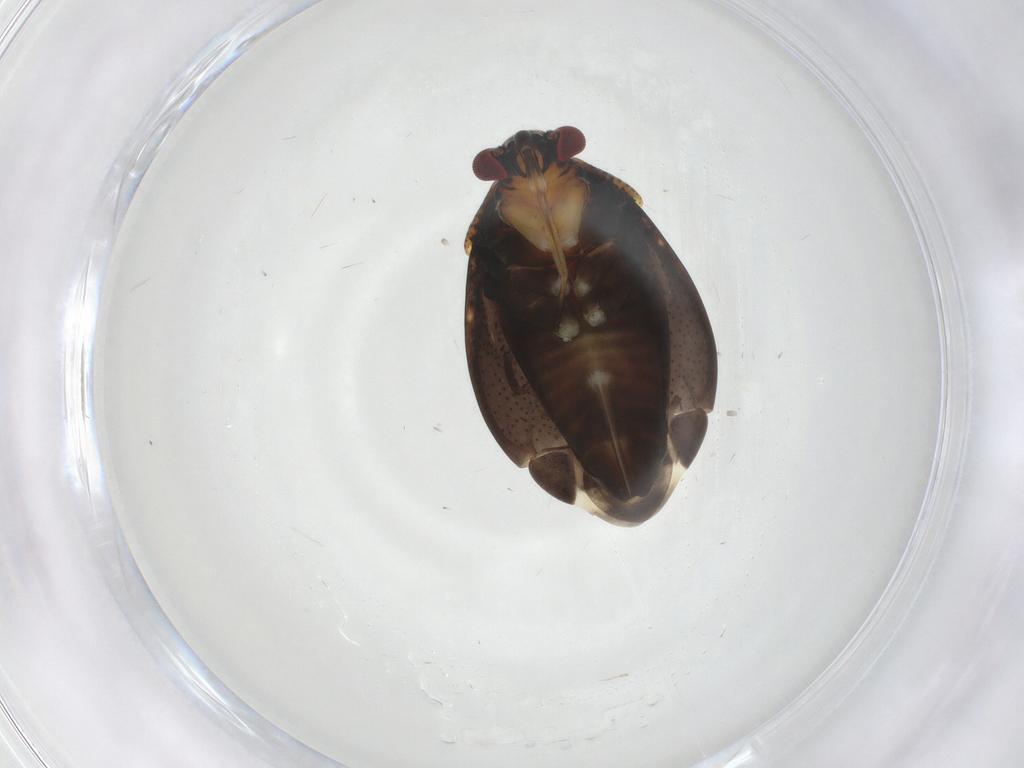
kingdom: Animalia
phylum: Arthropoda
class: Insecta
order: Hemiptera
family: Miridae
